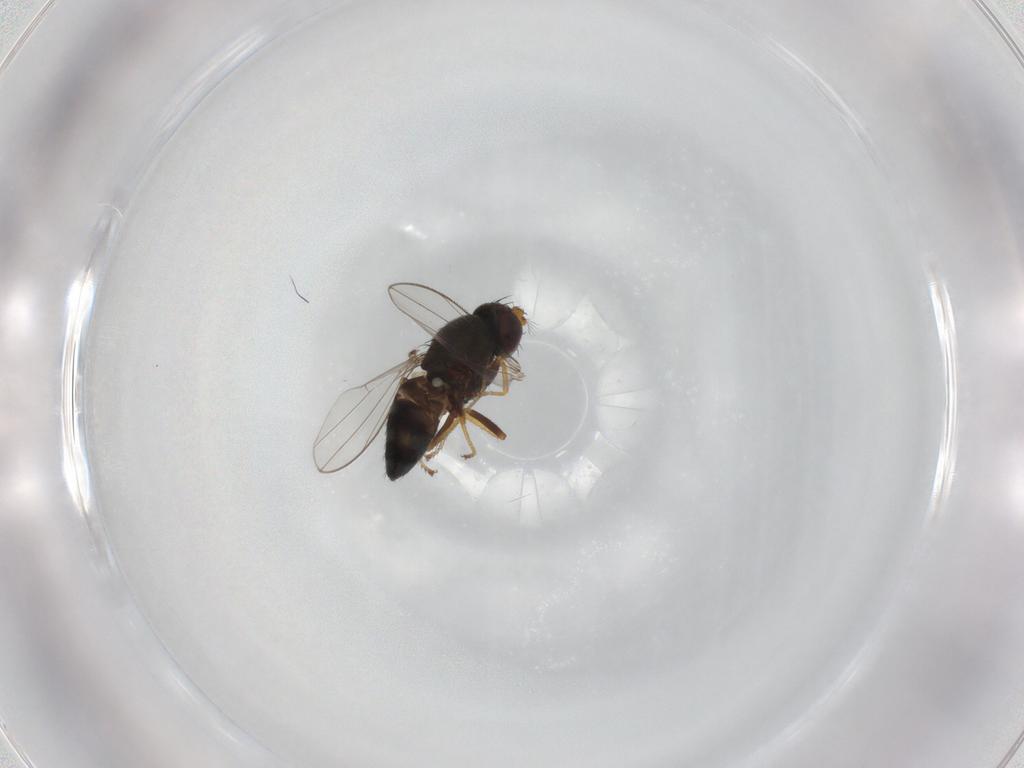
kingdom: Animalia
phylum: Arthropoda
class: Insecta
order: Diptera
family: Ephydridae
